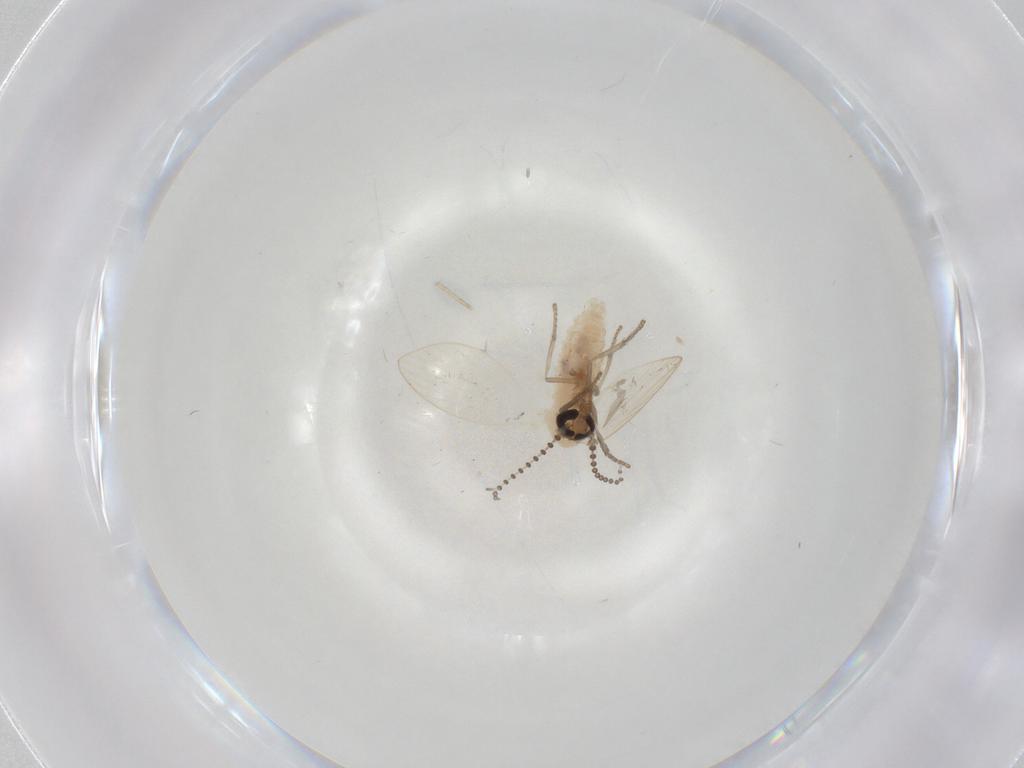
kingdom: Animalia
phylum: Arthropoda
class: Insecta
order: Diptera
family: Psychodidae
